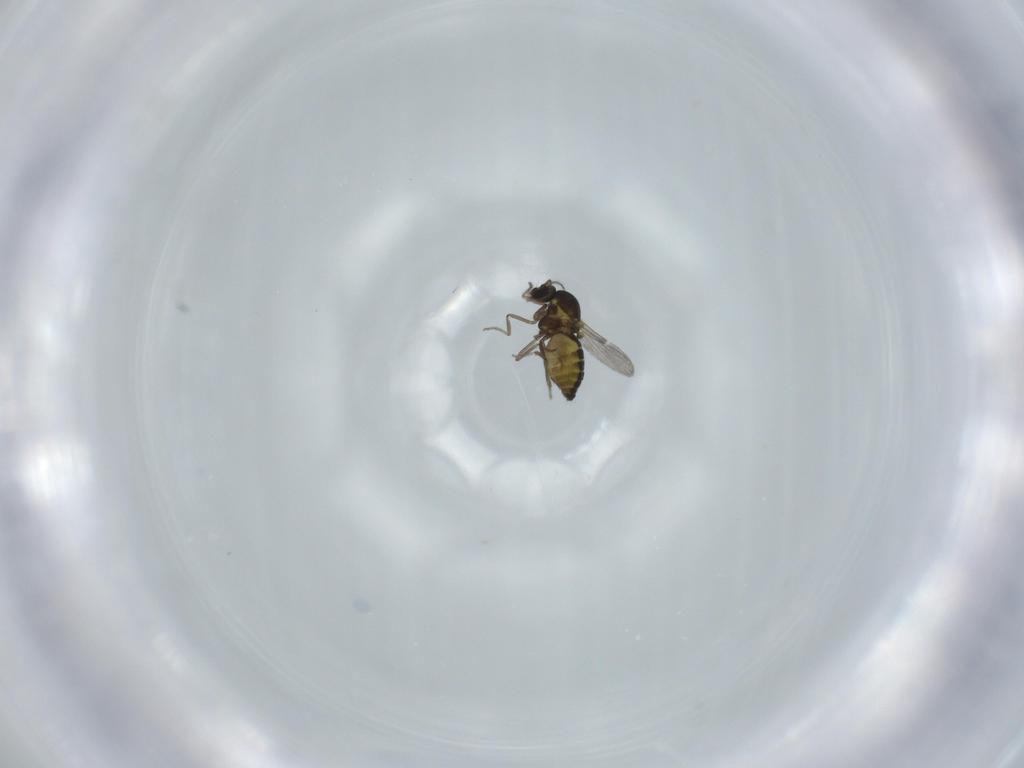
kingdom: Animalia
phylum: Arthropoda
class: Insecta
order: Diptera
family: Ceratopogonidae
